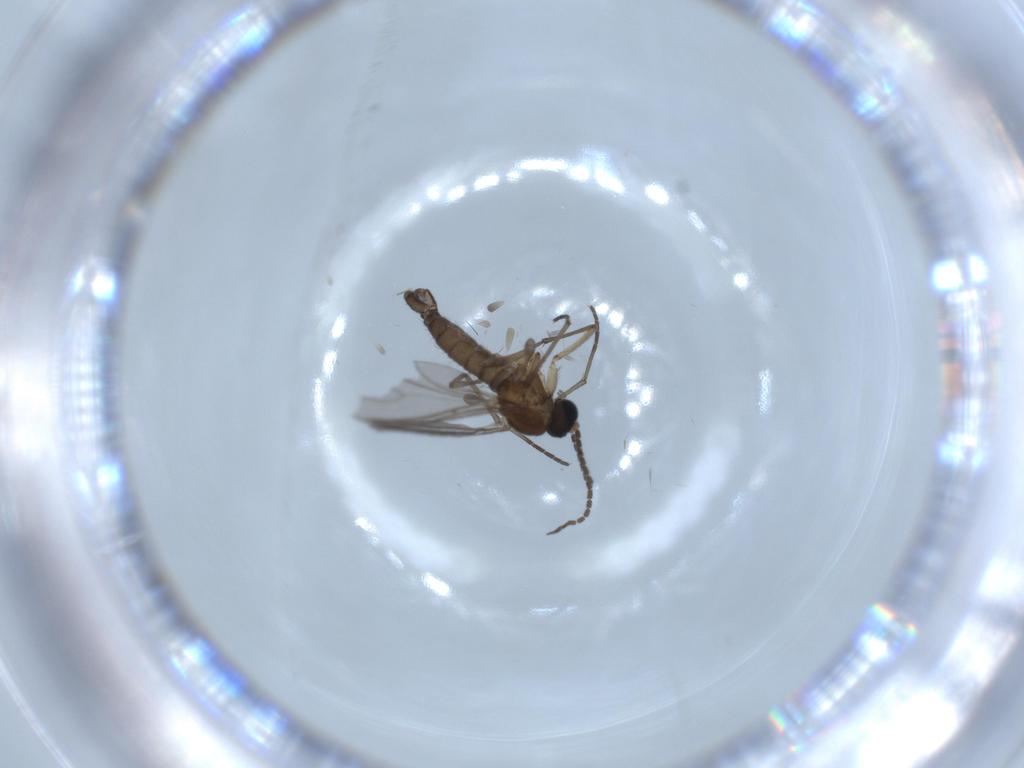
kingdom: Animalia
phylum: Arthropoda
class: Insecta
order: Diptera
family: Sciaridae
